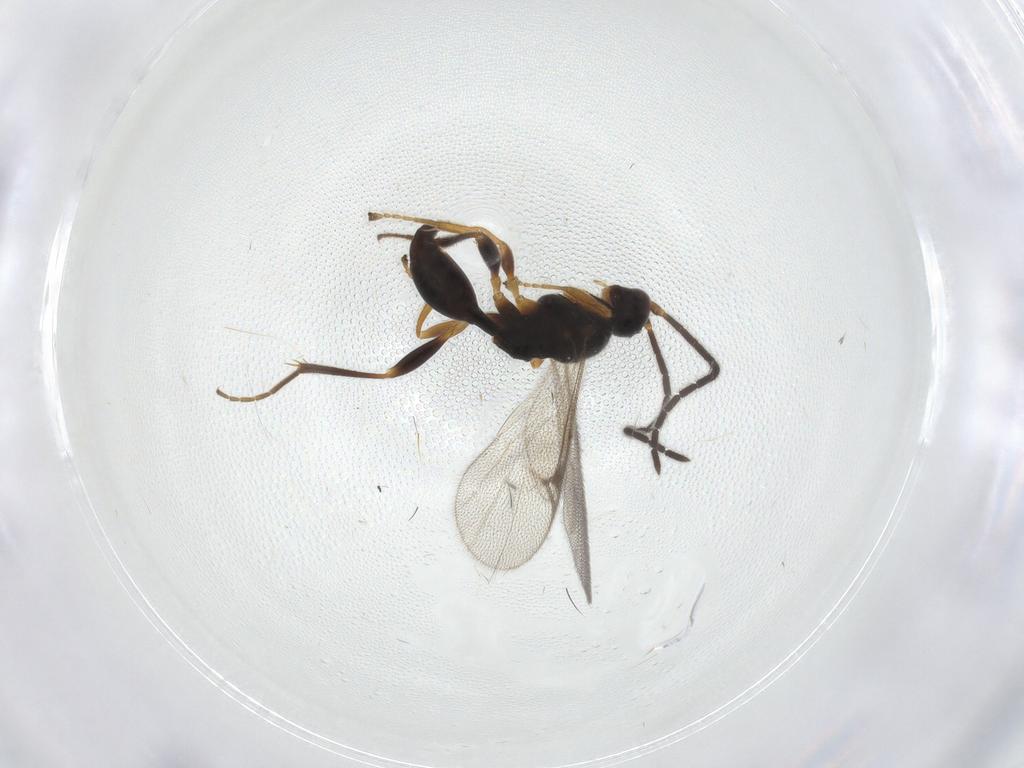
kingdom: Animalia
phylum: Arthropoda
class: Insecta
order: Hymenoptera
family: Proctotrupidae
